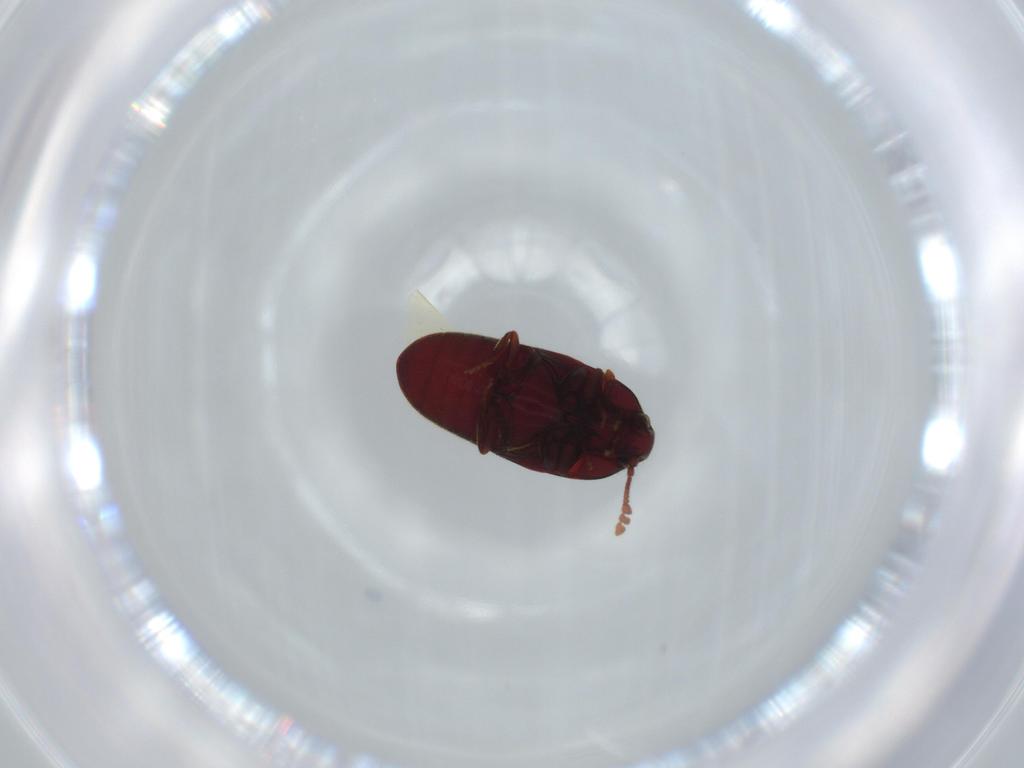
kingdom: Animalia
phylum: Arthropoda
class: Insecta
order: Coleoptera
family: Throscidae
